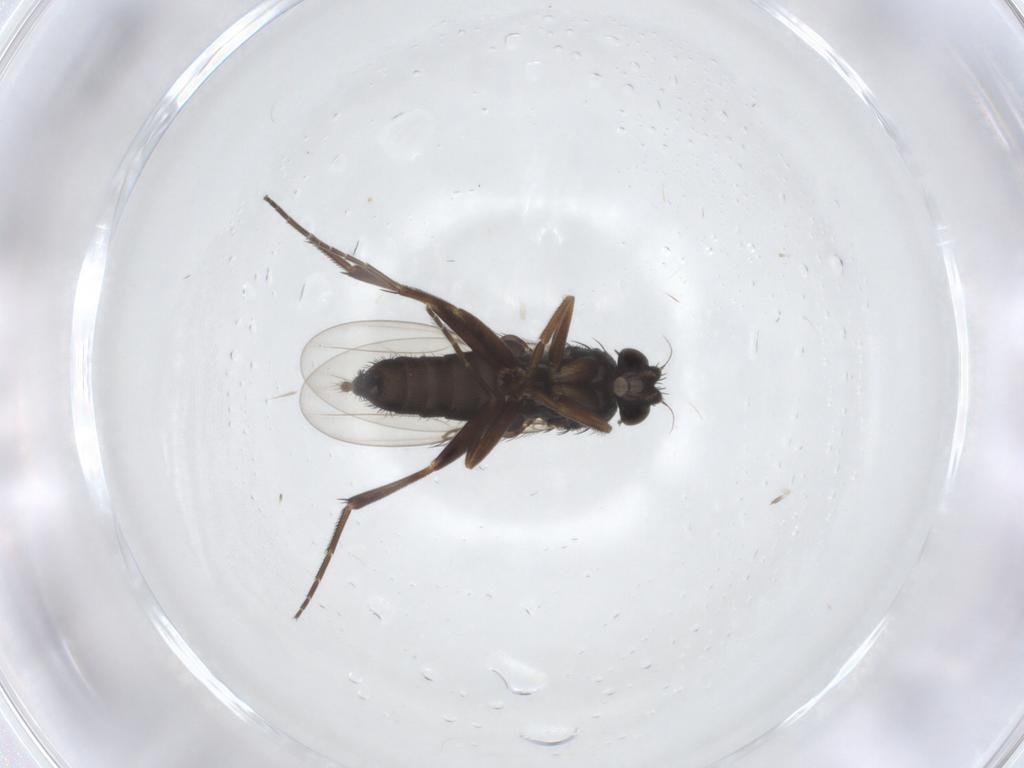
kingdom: Animalia
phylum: Arthropoda
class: Insecta
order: Diptera
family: Phoridae
